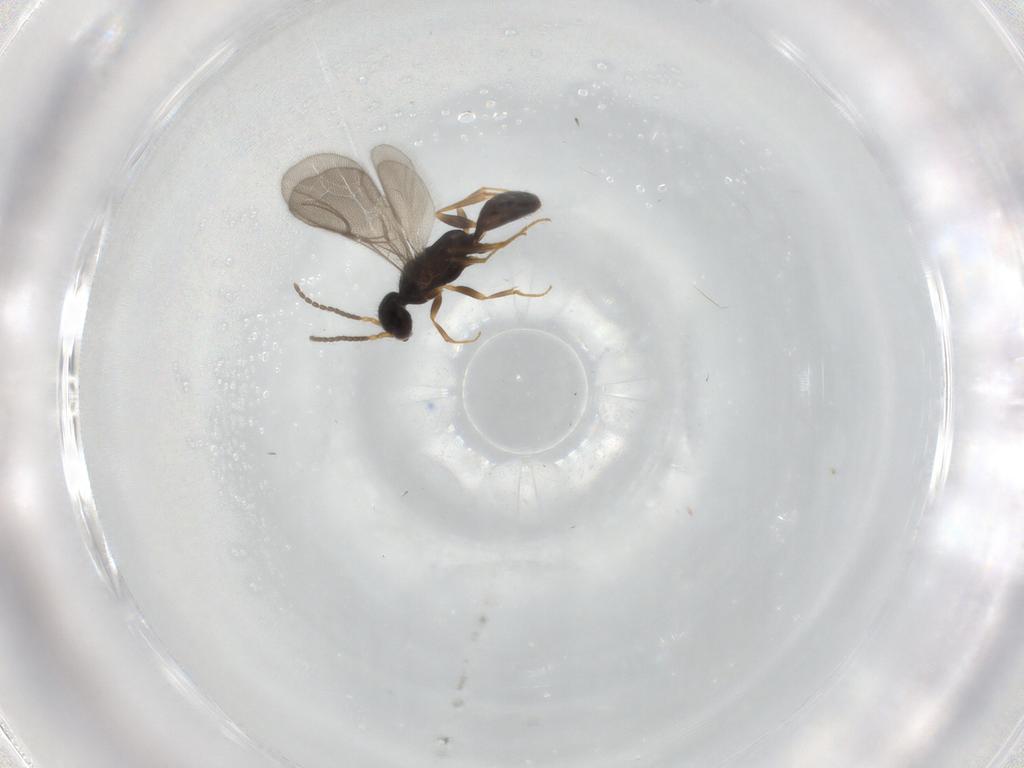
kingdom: Animalia
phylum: Arthropoda
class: Insecta
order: Hymenoptera
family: Bethylidae
